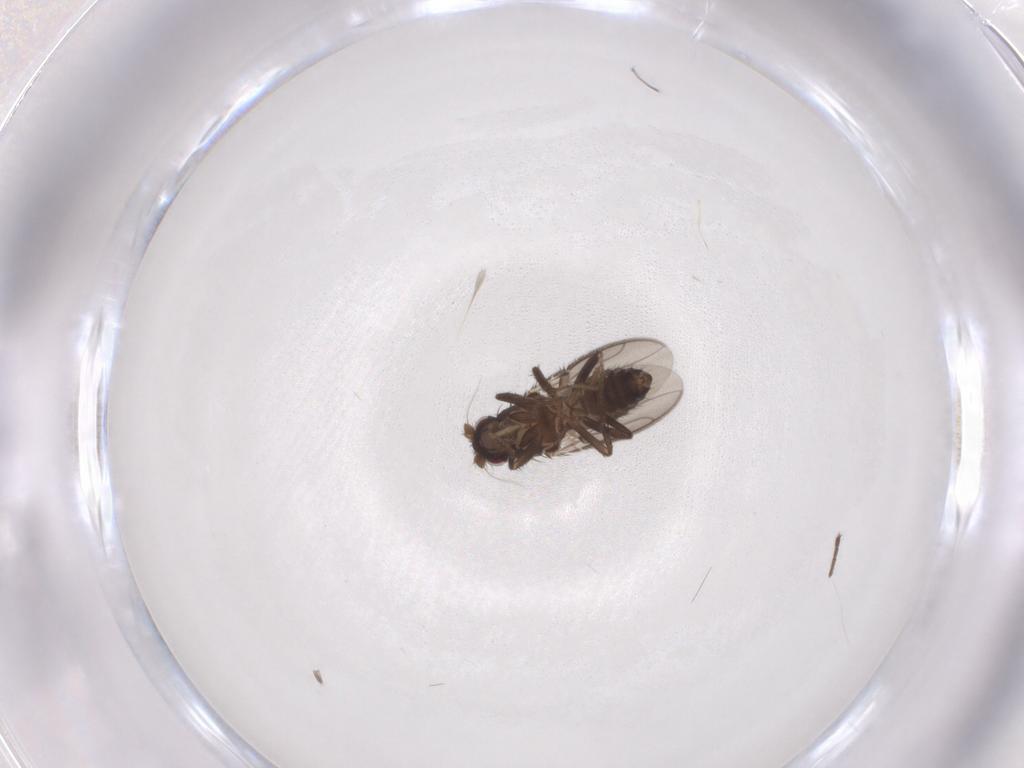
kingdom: Animalia
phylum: Arthropoda
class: Insecta
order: Diptera
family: Sphaeroceridae
